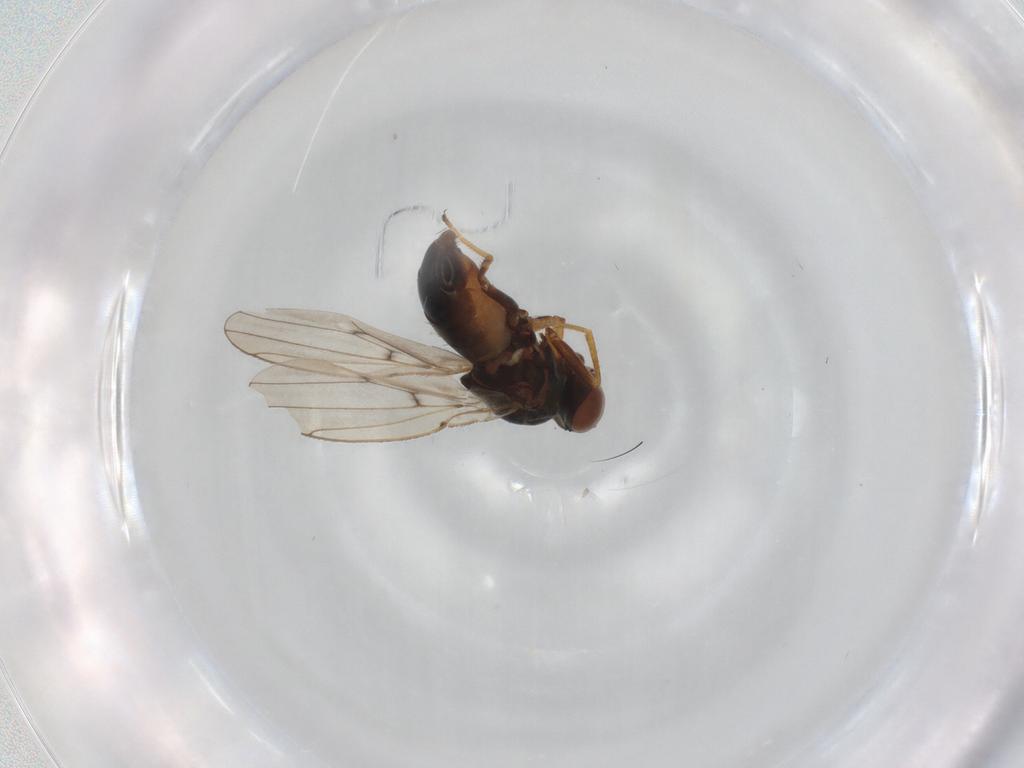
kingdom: Animalia
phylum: Arthropoda
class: Insecta
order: Diptera
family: Ephydridae
